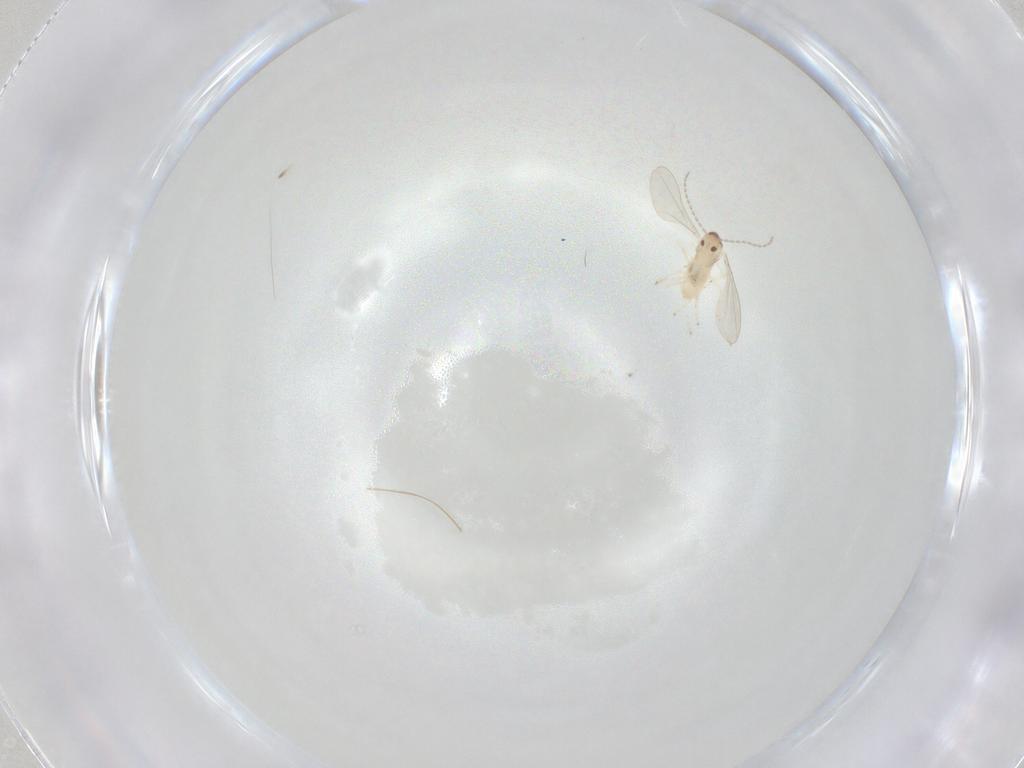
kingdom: Animalia
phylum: Arthropoda
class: Insecta
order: Diptera
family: Cecidomyiidae
